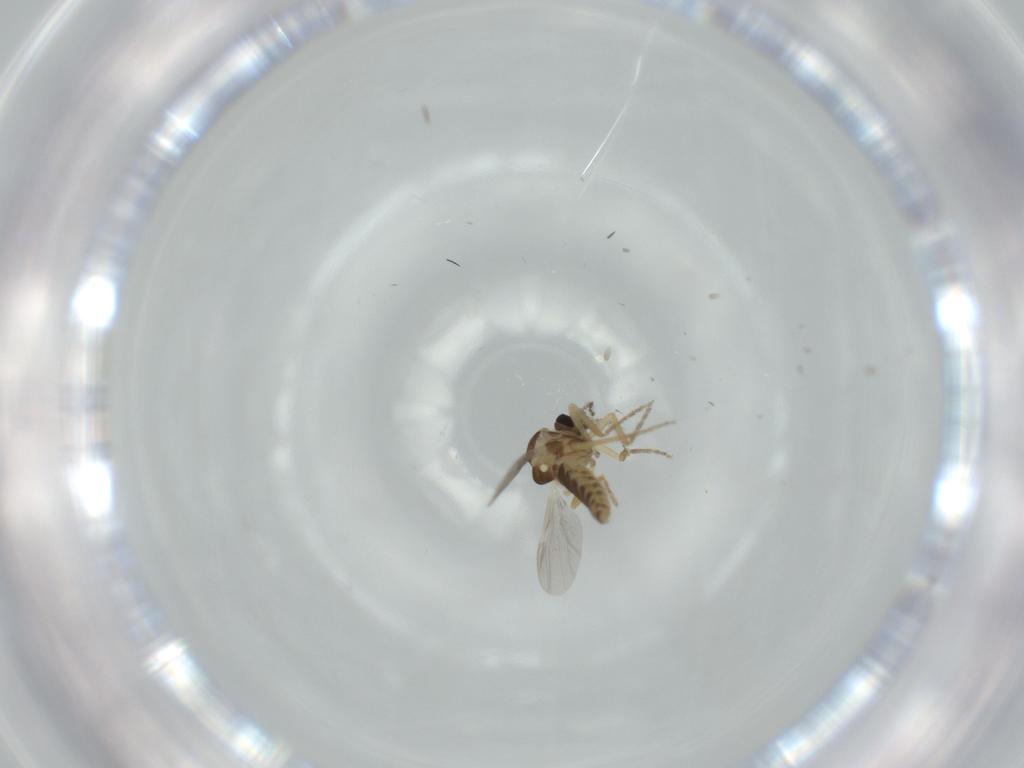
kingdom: Animalia
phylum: Arthropoda
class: Insecta
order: Diptera
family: Ceratopogonidae
